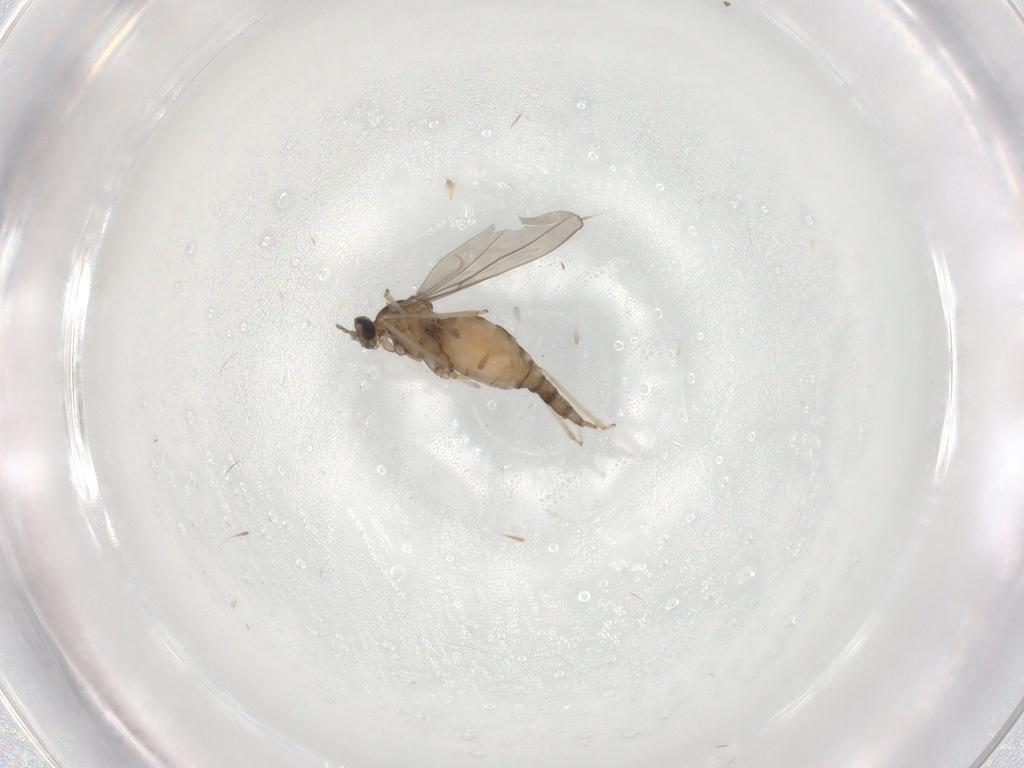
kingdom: Animalia
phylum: Arthropoda
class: Insecta
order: Diptera
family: Cecidomyiidae
